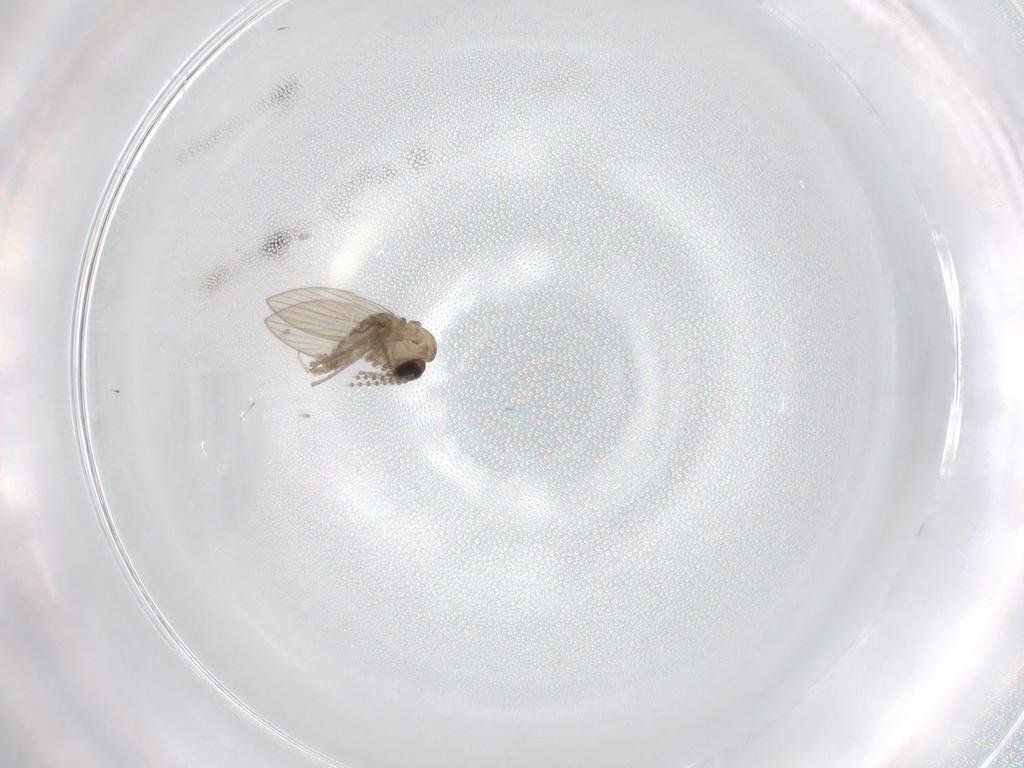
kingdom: Animalia
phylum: Arthropoda
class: Insecta
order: Diptera
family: Psychodidae
